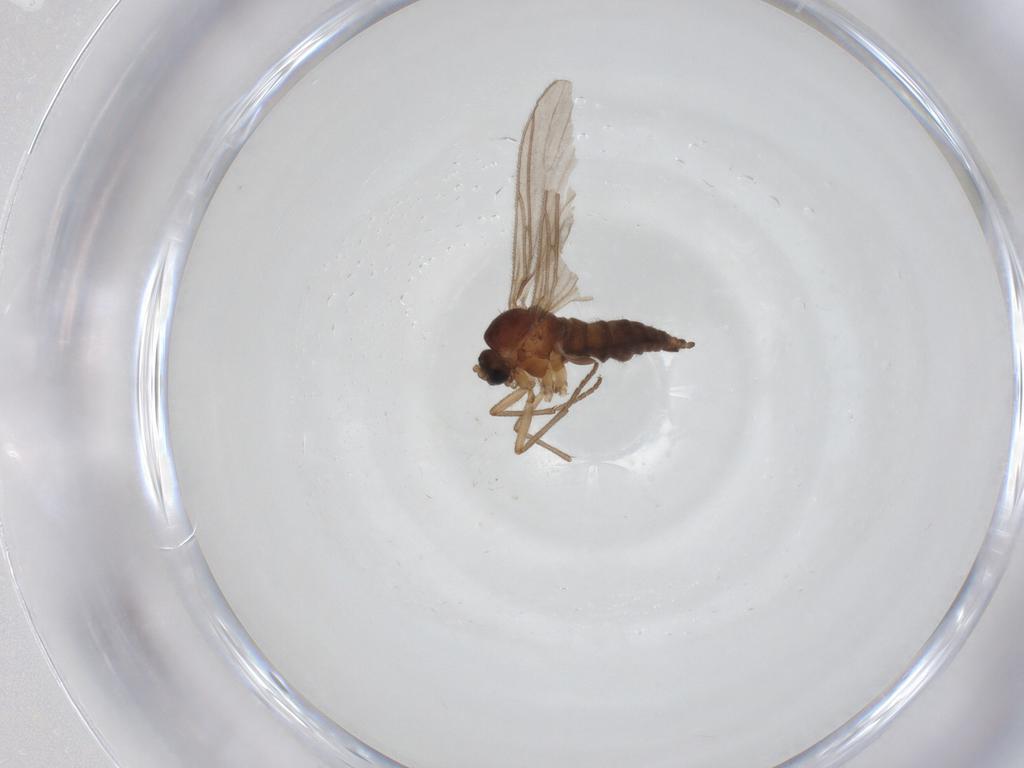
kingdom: Animalia
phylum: Arthropoda
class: Insecta
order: Diptera
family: Sciaridae
